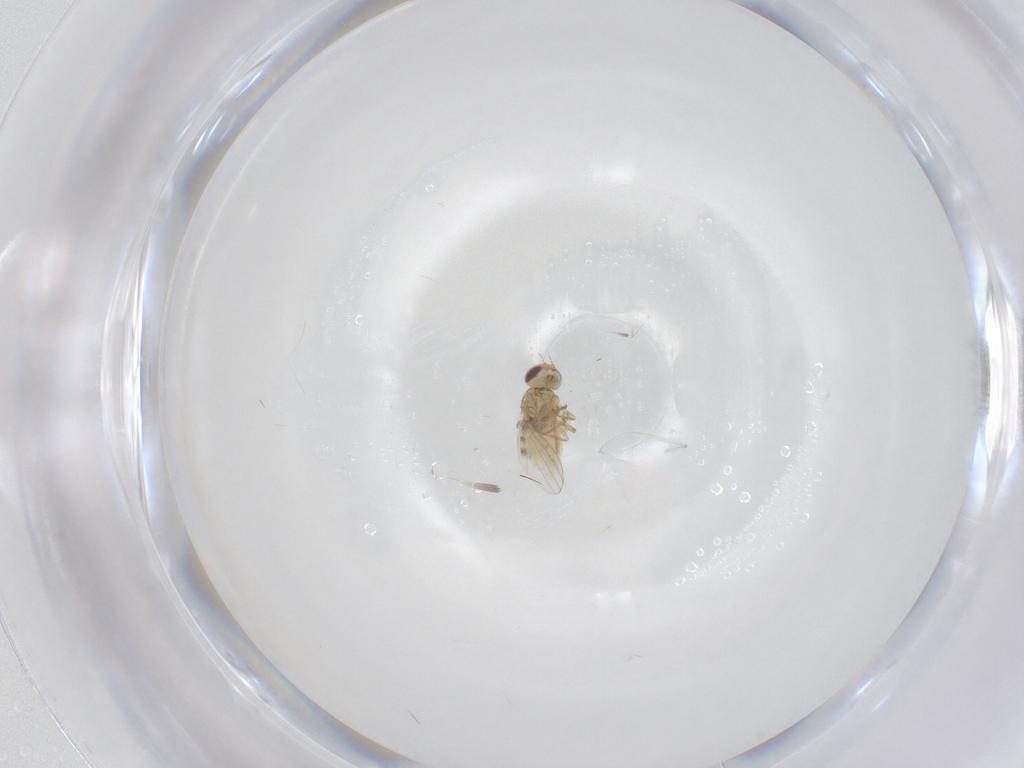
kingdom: Animalia
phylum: Arthropoda
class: Insecta
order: Diptera
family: Chyromyidae
